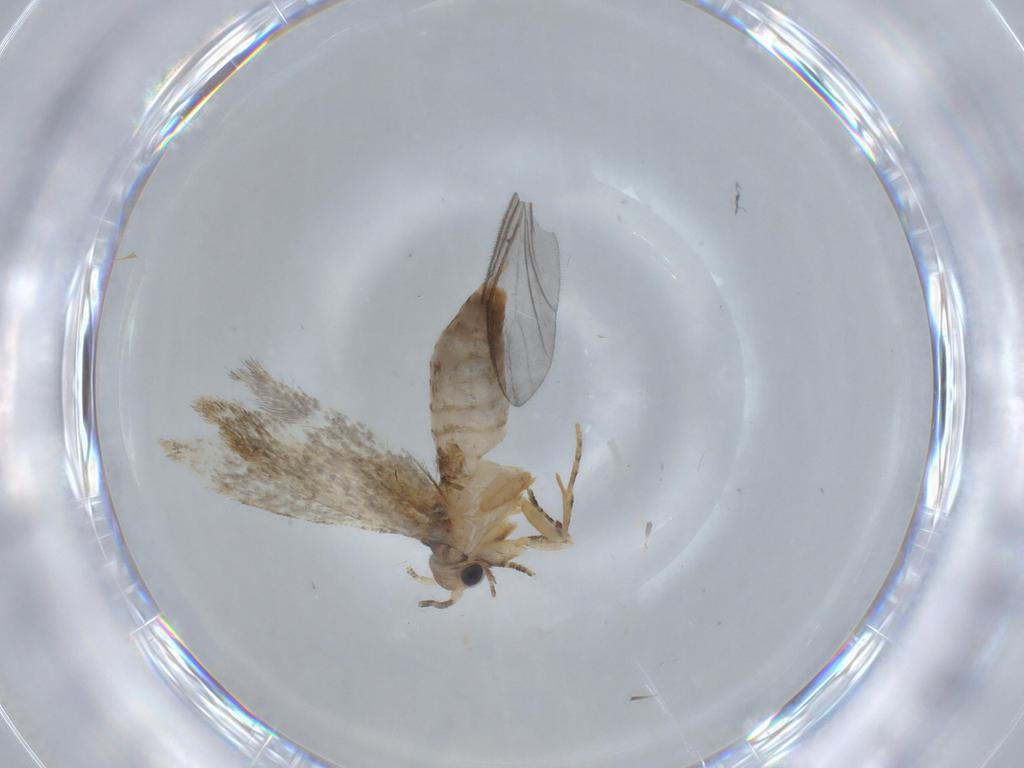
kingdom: Animalia
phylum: Arthropoda
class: Insecta
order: Lepidoptera
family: Tineidae
